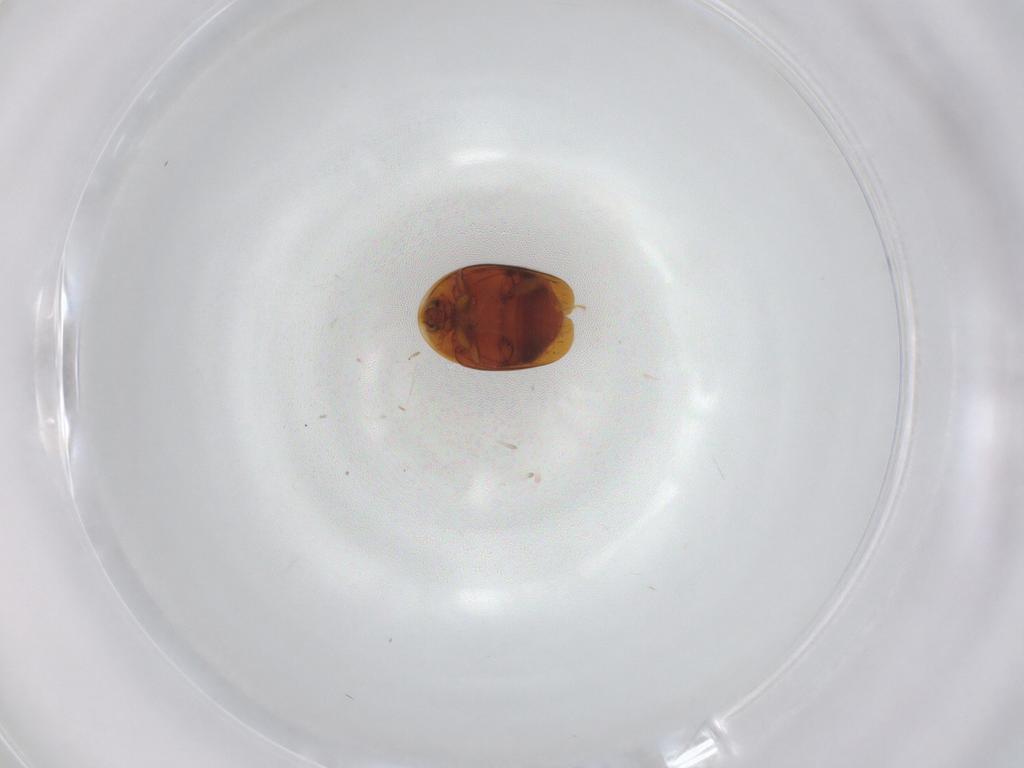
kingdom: Animalia
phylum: Arthropoda
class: Insecta
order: Coleoptera
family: Corylophidae
